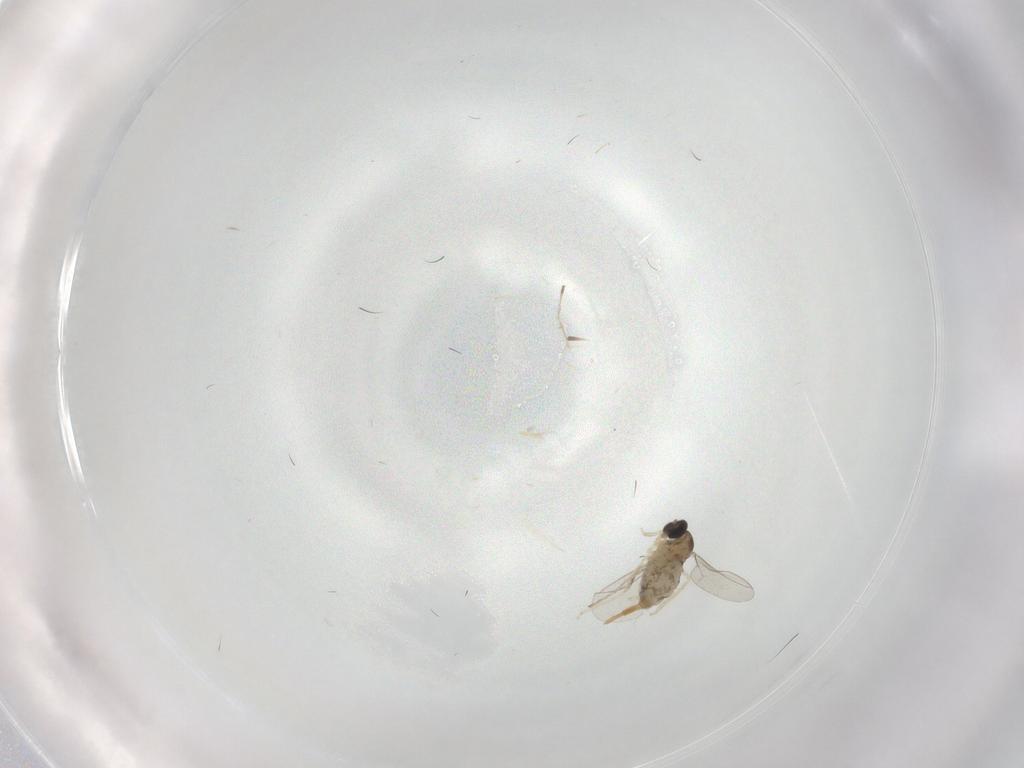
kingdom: Animalia
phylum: Arthropoda
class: Insecta
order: Diptera
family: Cecidomyiidae
